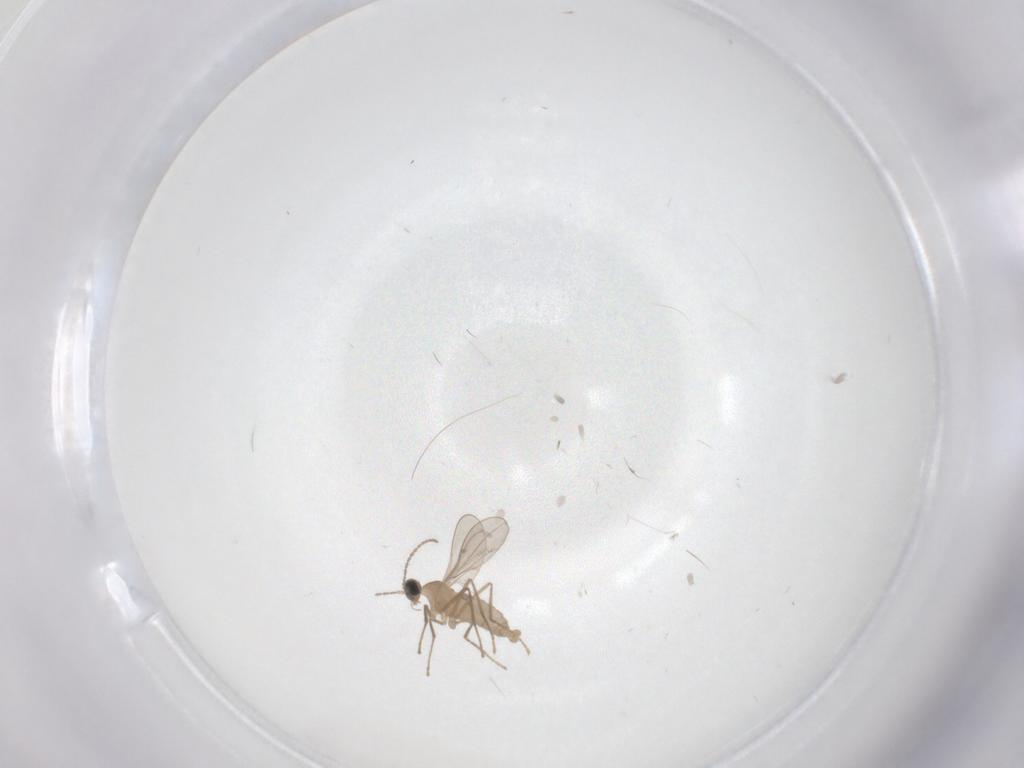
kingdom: Animalia
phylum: Arthropoda
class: Insecta
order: Diptera
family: Cecidomyiidae
